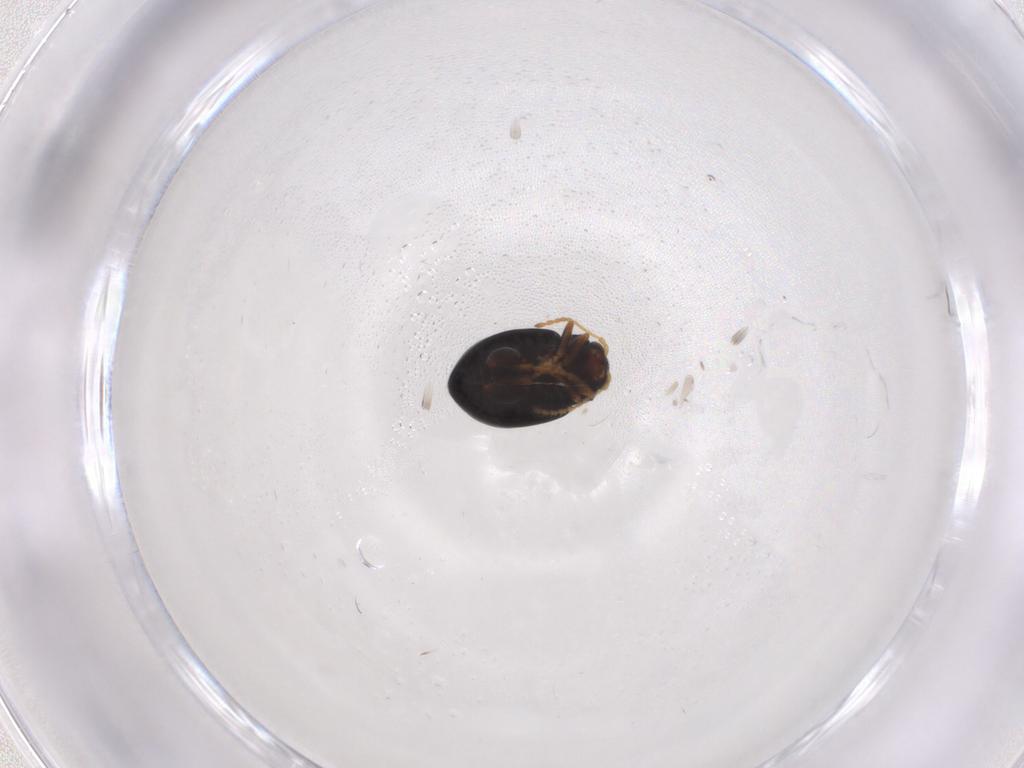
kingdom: Animalia
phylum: Arthropoda
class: Insecta
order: Coleoptera
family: Chrysomelidae
